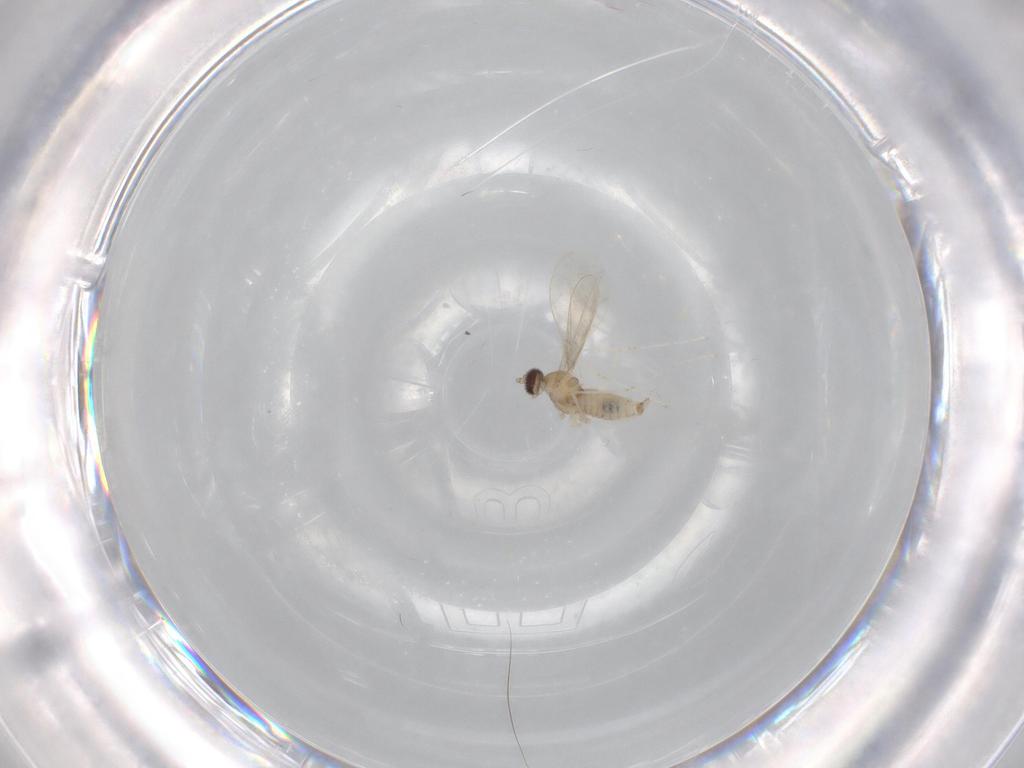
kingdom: Animalia
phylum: Arthropoda
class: Insecta
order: Diptera
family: Cecidomyiidae
